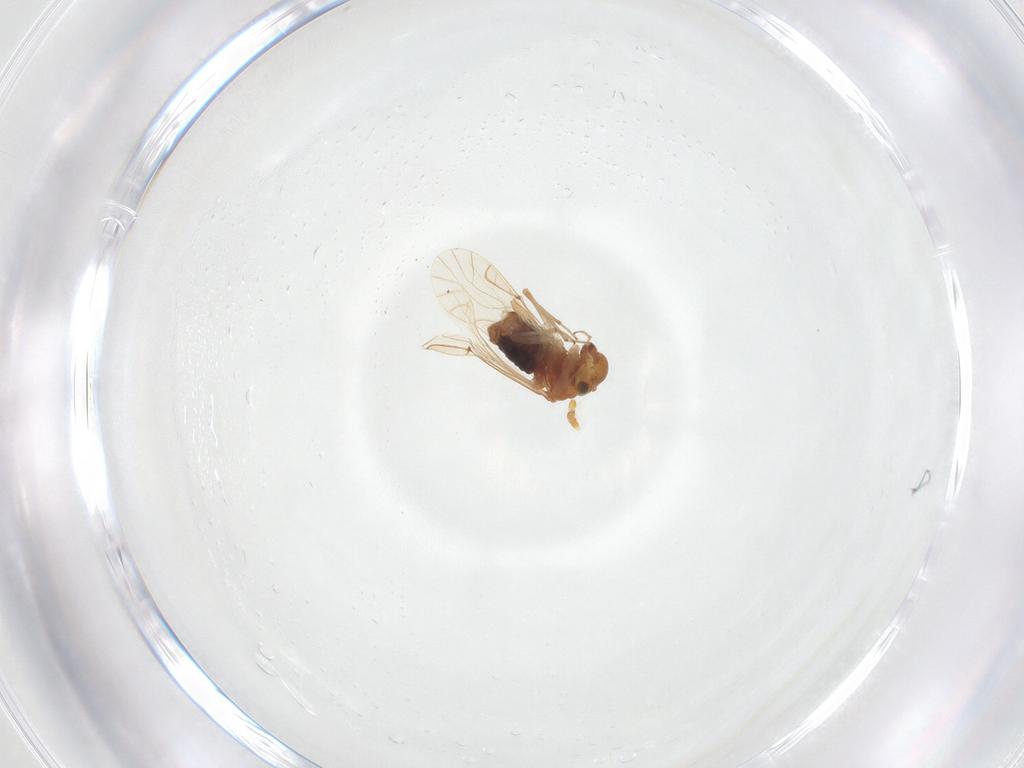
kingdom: Animalia
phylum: Arthropoda
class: Insecta
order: Psocodea
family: Lachesillidae
